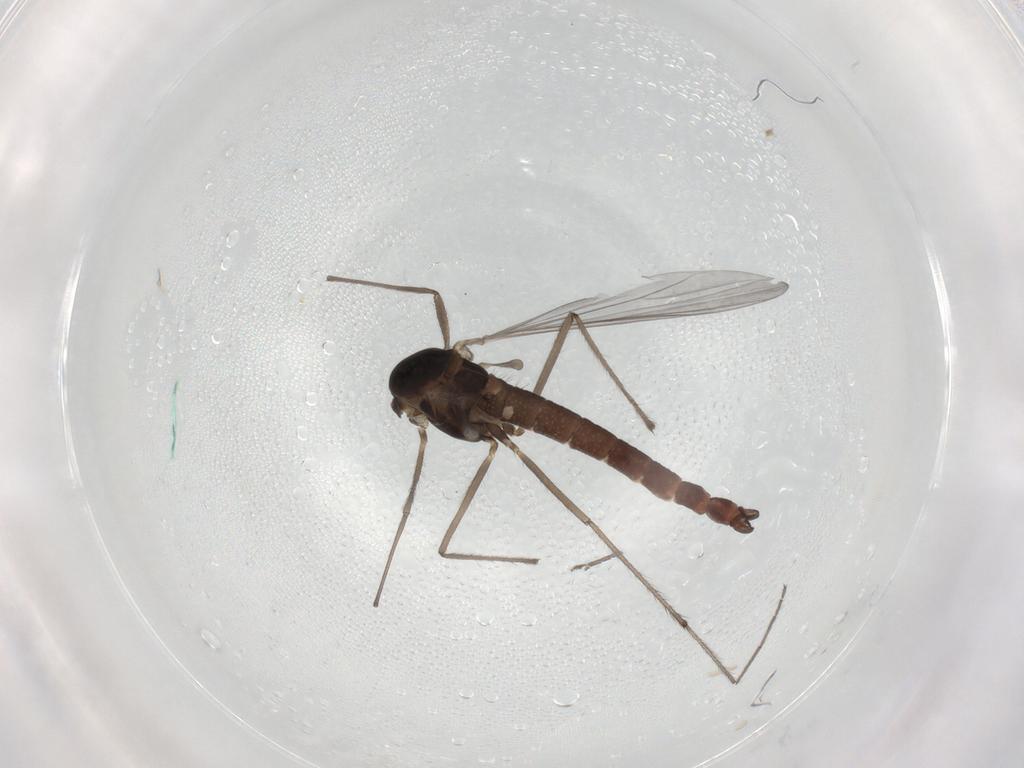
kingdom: Animalia
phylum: Arthropoda
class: Insecta
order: Diptera
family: Chironomidae
